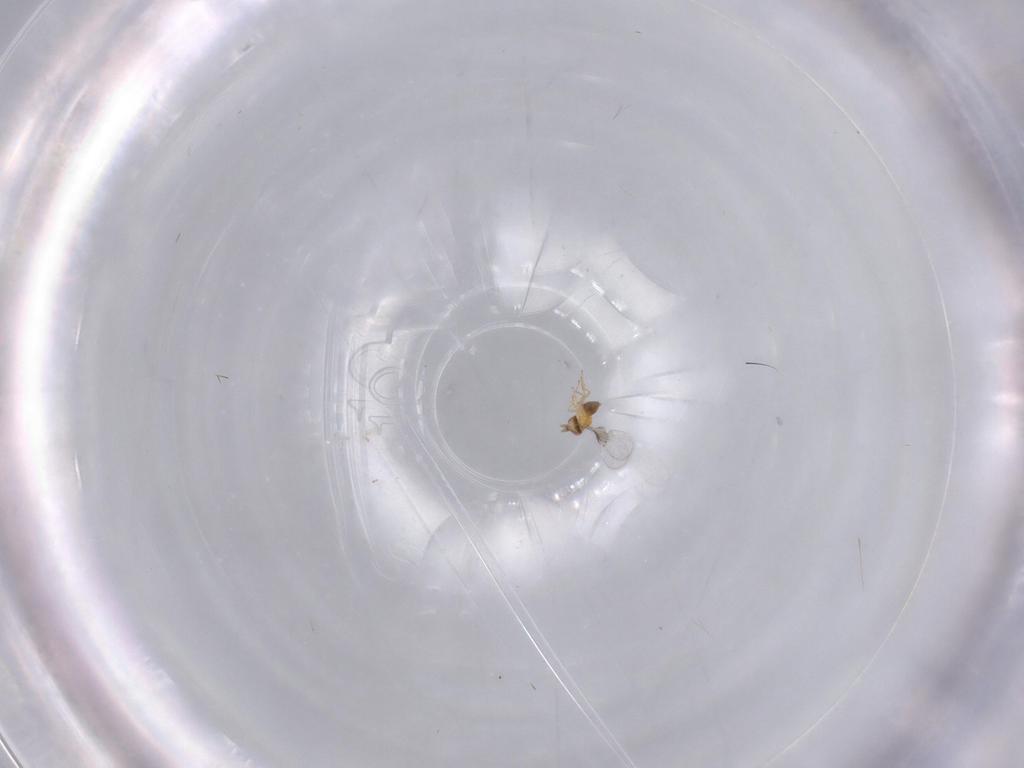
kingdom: Animalia
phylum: Arthropoda
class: Insecta
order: Hymenoptera
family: Trichogrammatidae
